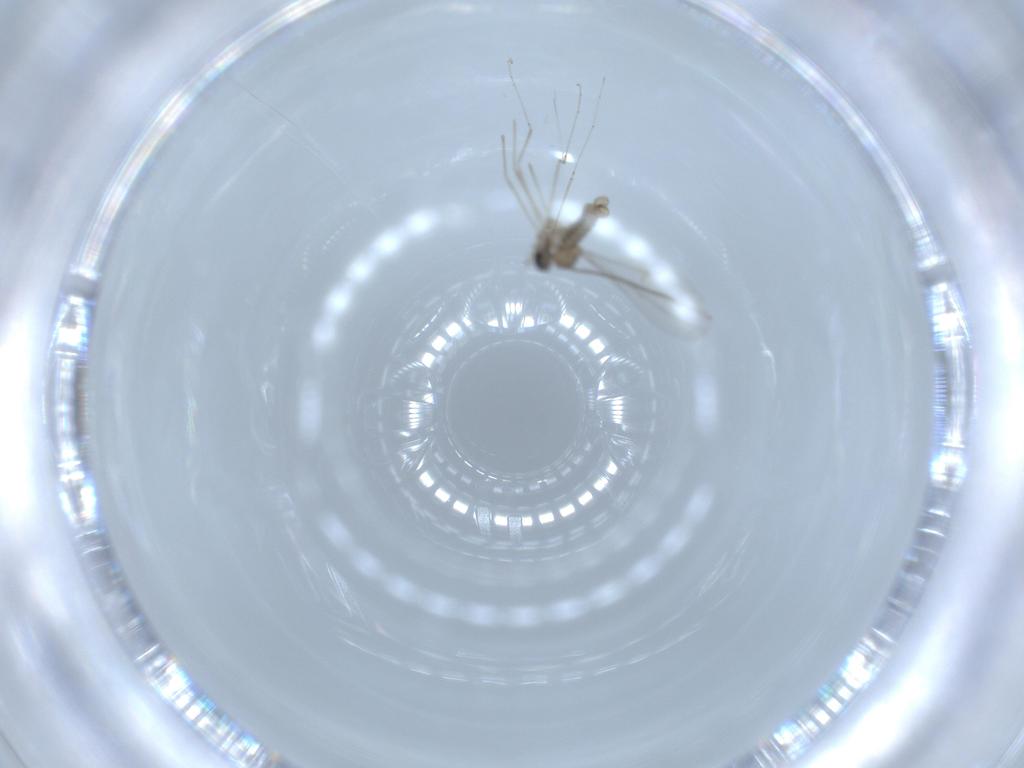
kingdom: Animalia
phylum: Arthropoda
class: Insecta
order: Diptera
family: Cecidomyiidae
